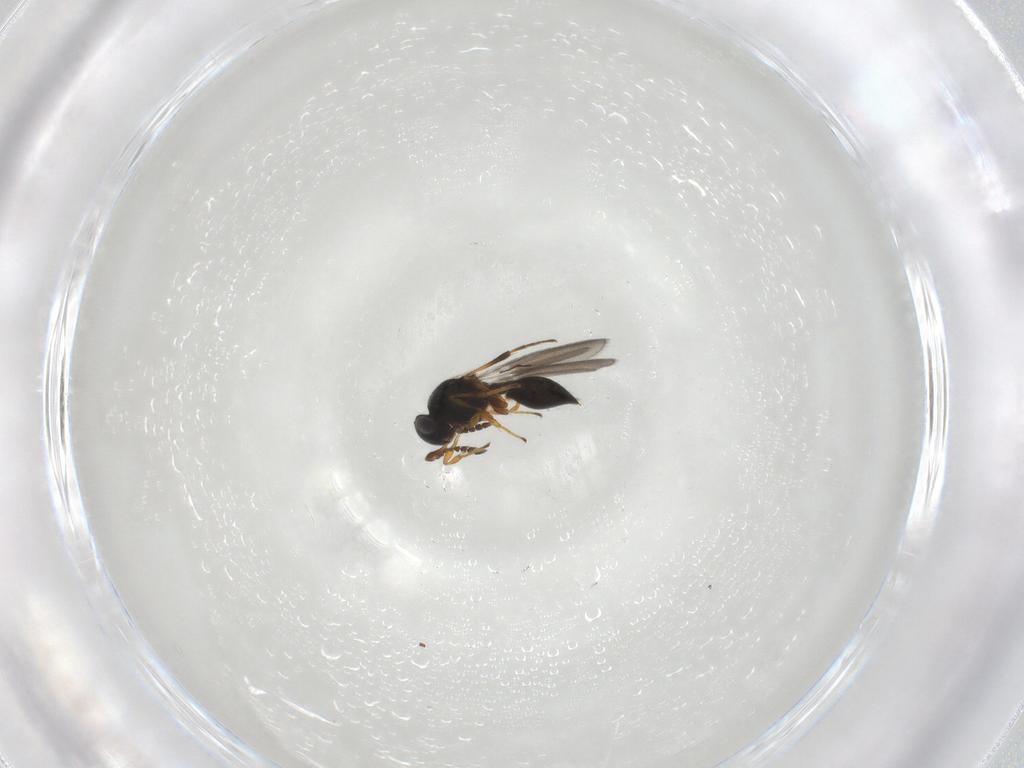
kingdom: Animalia
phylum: Arthropoda
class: Insecta
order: Hymenoptera
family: Platygastridae
